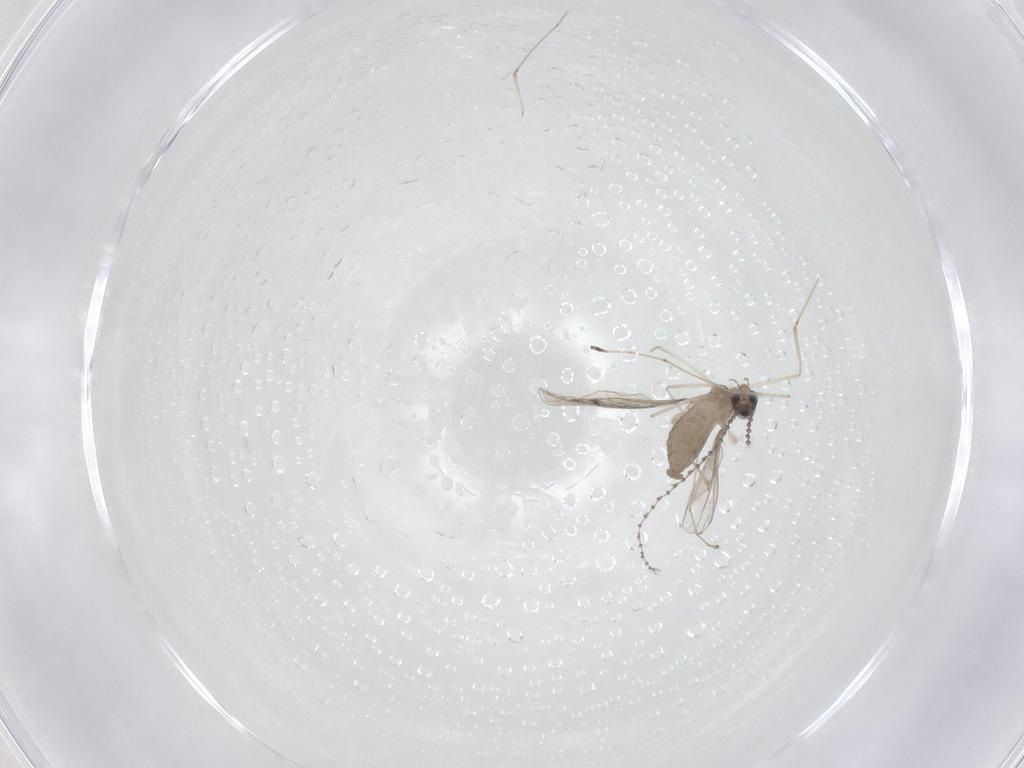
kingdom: Animalia
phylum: Arthropoda
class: Insecta
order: Diptera
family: Cecidomyiidae
